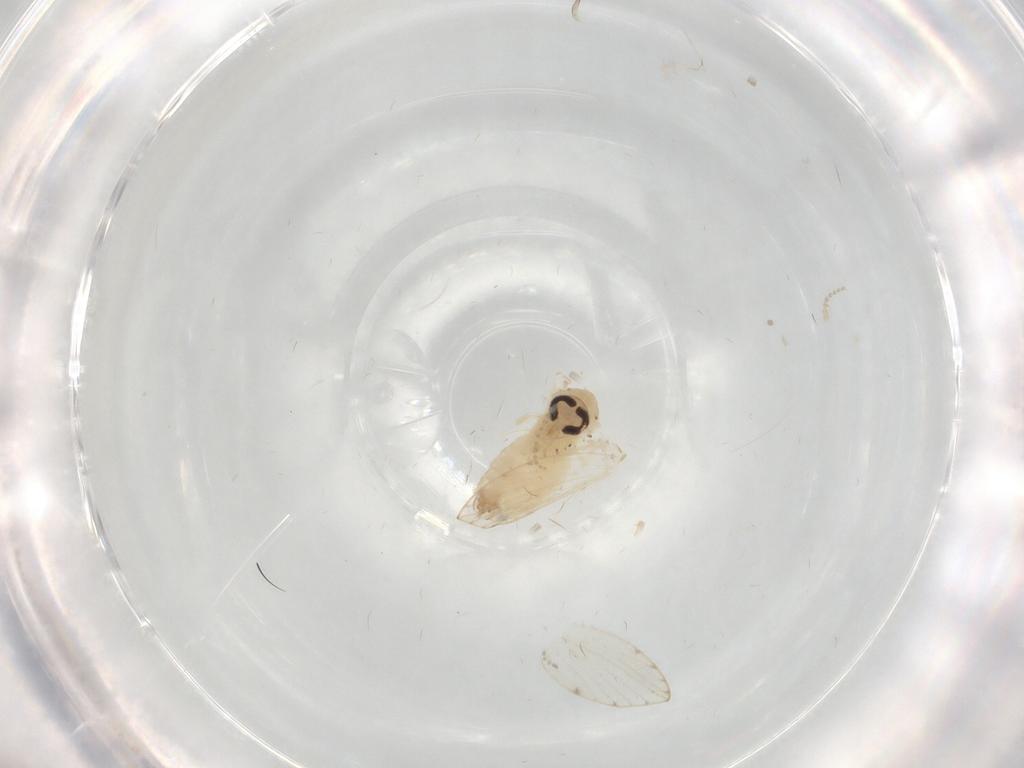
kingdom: Animalia
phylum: Arthropoda
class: Insecta
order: Diptera
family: Psychodidae
